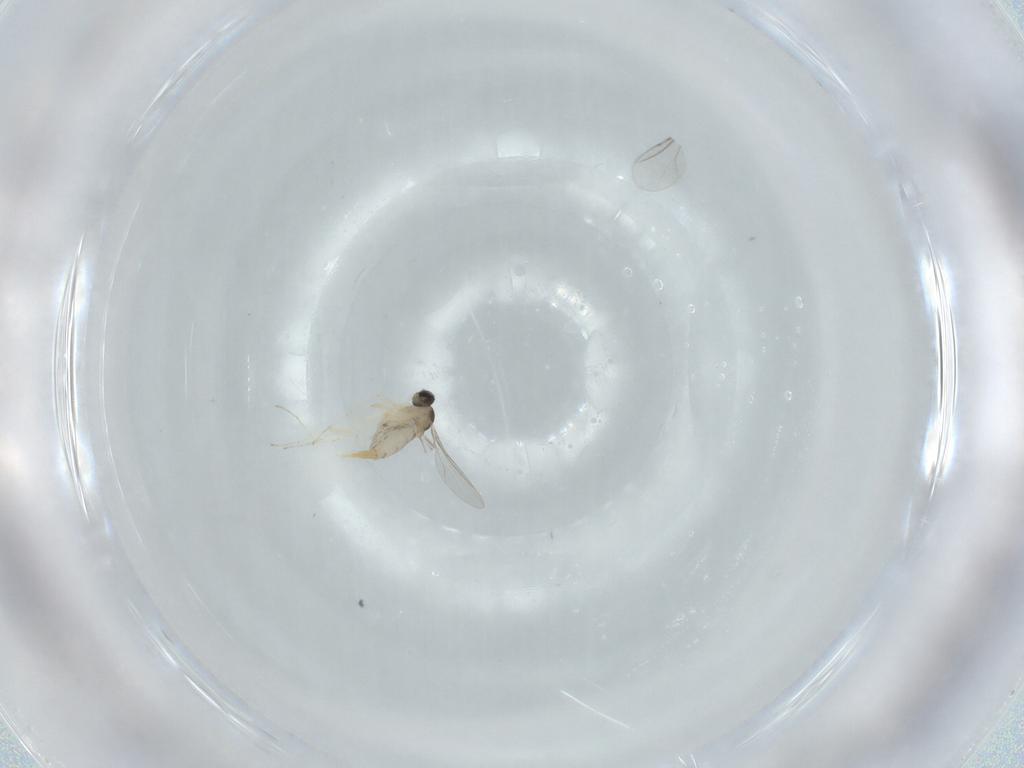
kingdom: Animalia
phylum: Arthropoda
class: Insecta
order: Diptera
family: Cecidomyiidae
